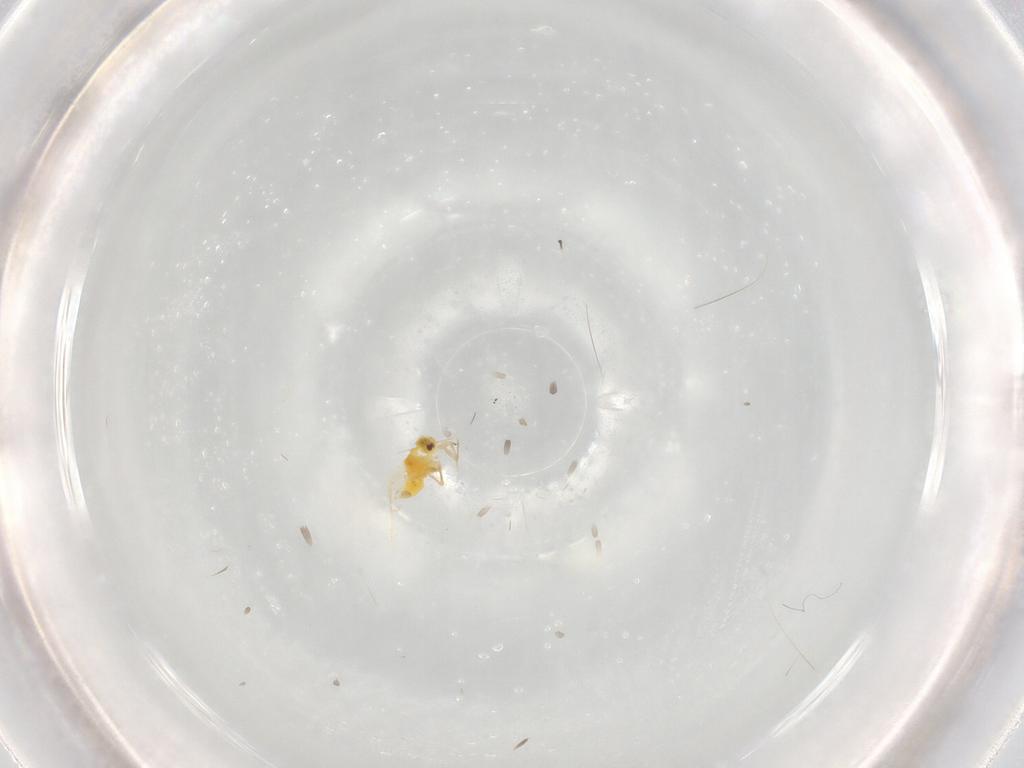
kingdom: Animalia
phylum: Arthropoda
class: Insecta
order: Hemiptera
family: Aleyrodidae
